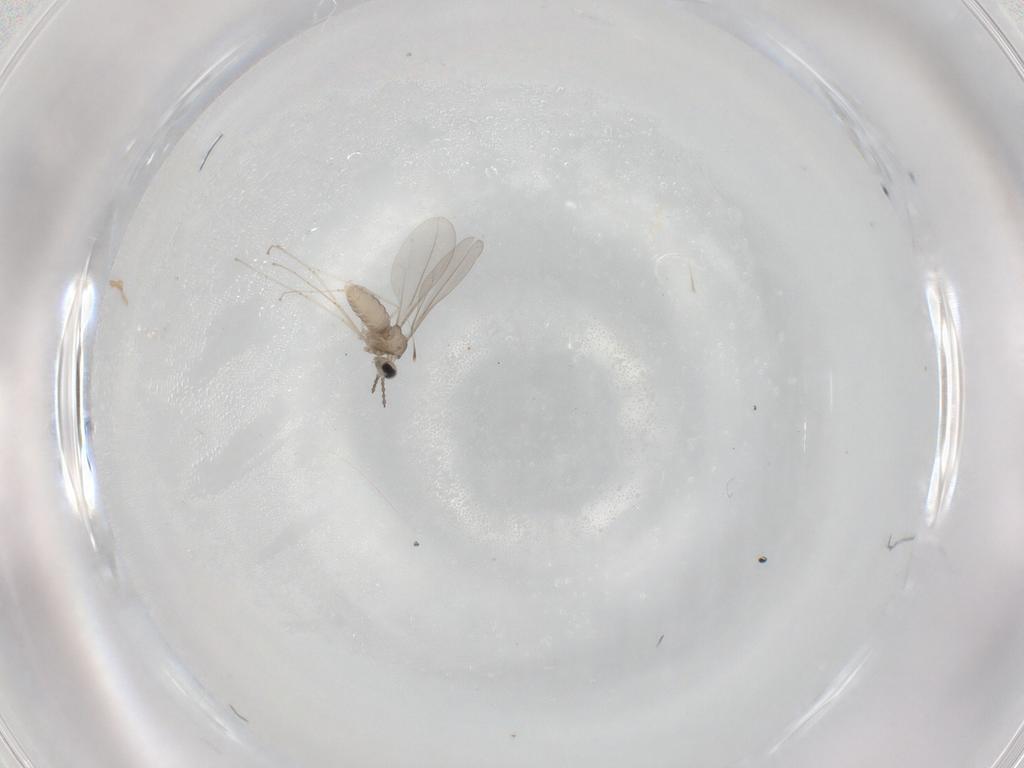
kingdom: Animalia
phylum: Arthropoda
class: Insecta
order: Diptera
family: Micropezidae
